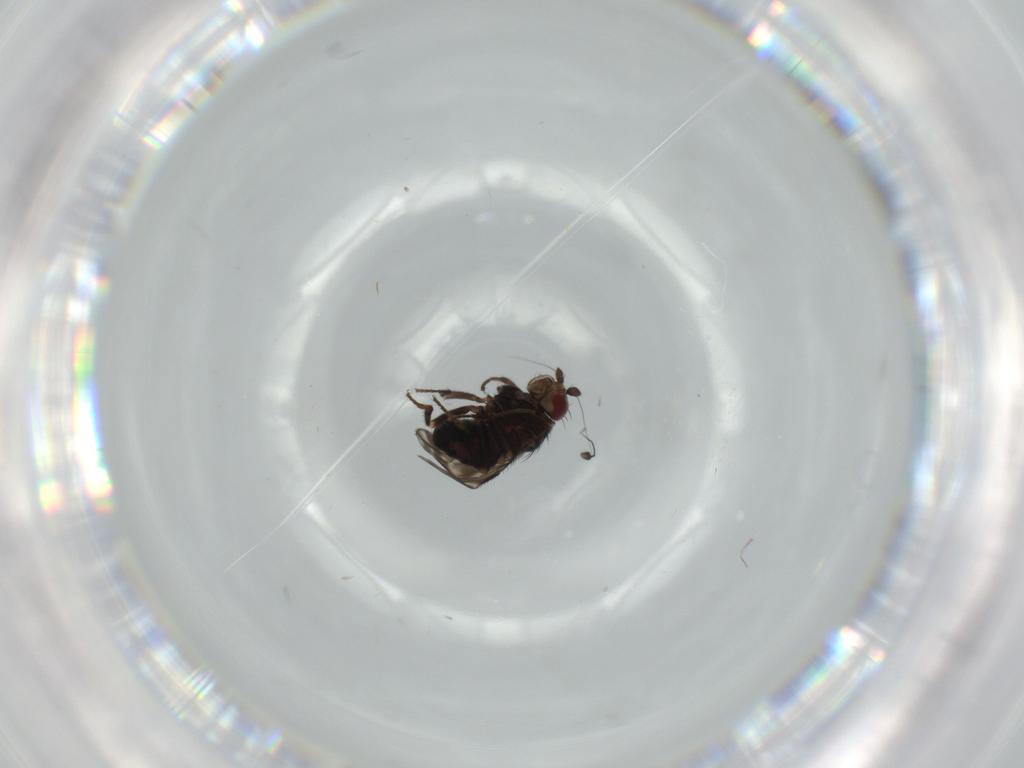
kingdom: Animalia
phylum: Arthropoda
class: Insecta
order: Diptera
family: Sphaeroceridae
